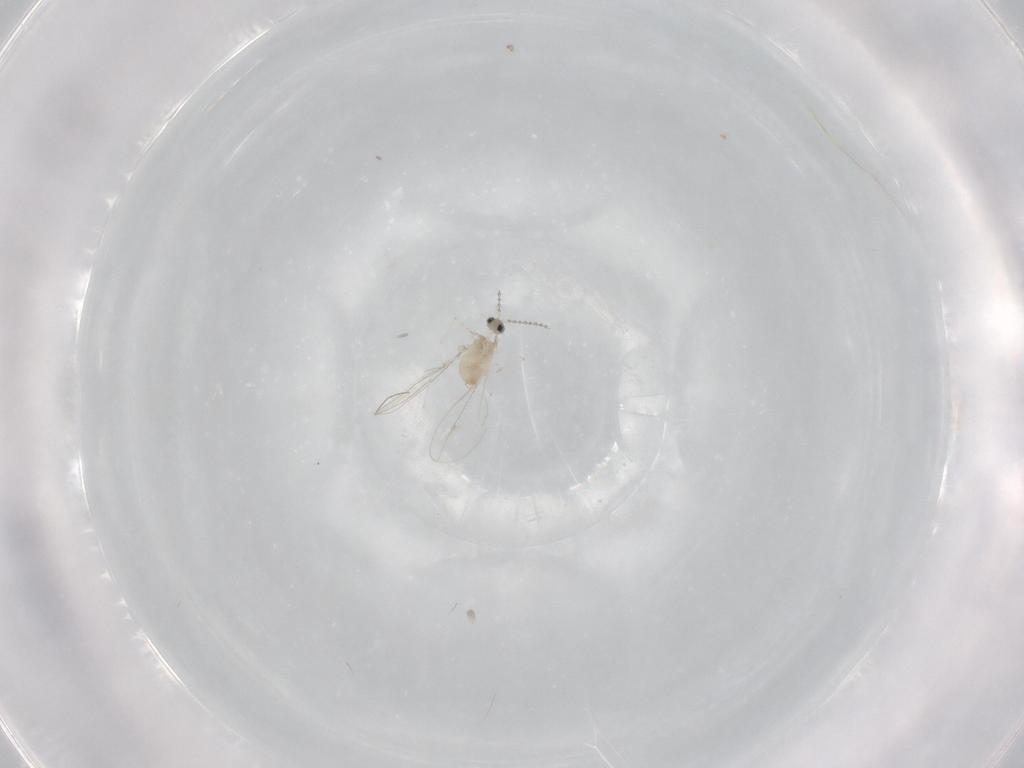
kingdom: Animalia
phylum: Arthropoda
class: Insecta
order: Diptera
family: Cecidomyiidae
